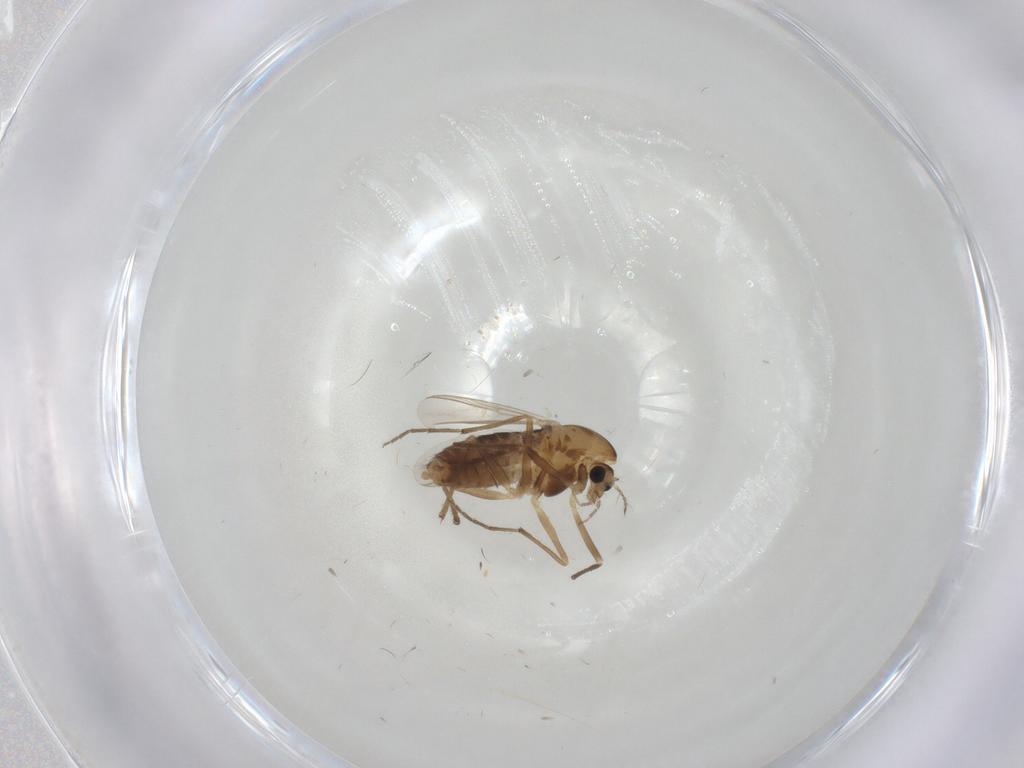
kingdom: Animalia
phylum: Arthropoda
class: Insecta
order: Diptera
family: Chironomidae
